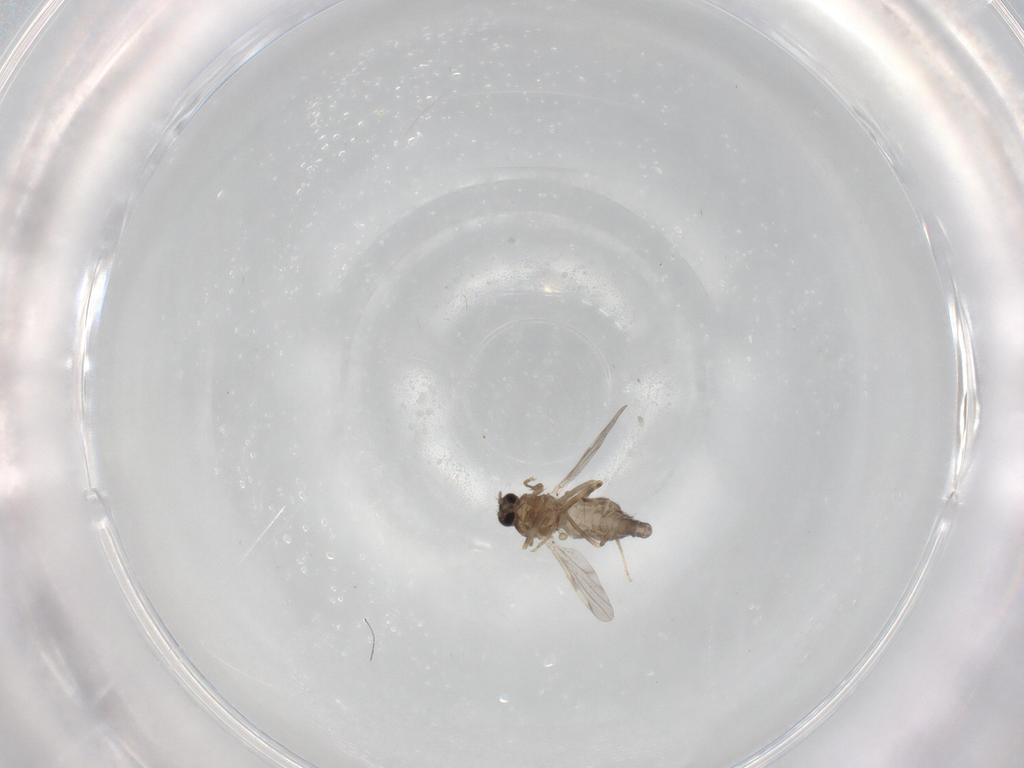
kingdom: Animalia
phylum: Arthropoda
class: Insecta
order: Diptera
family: Ceratopogonidae
